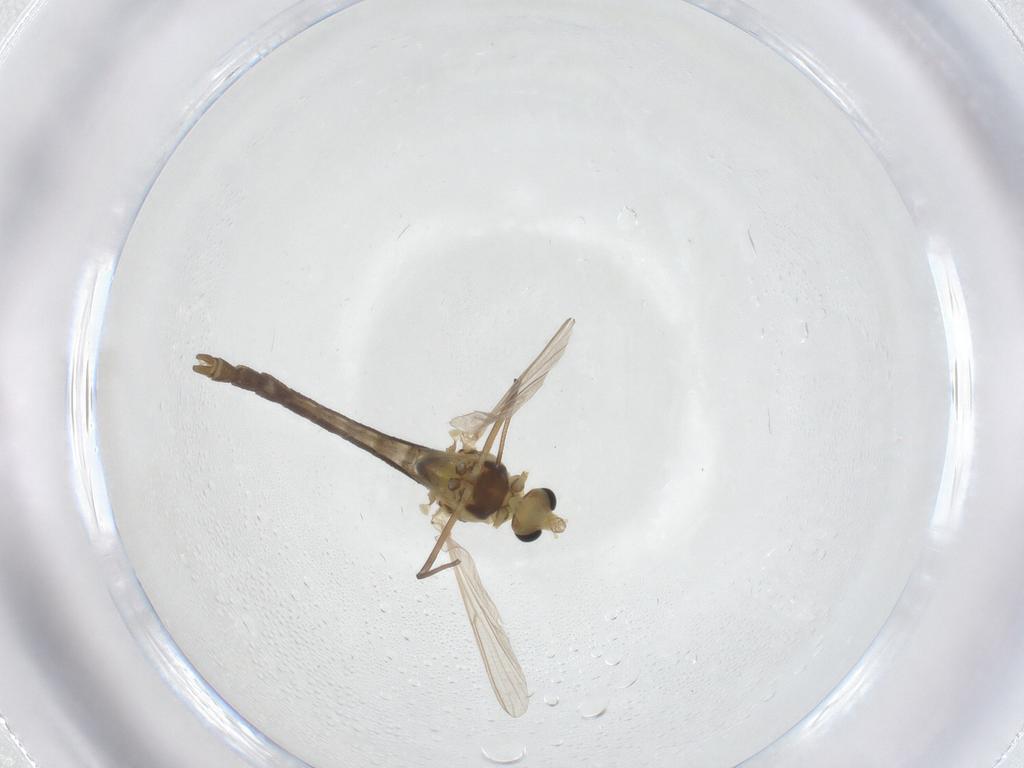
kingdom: Animalia
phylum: Arthropoda
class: Insecta
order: Diptera
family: Chironomidae
